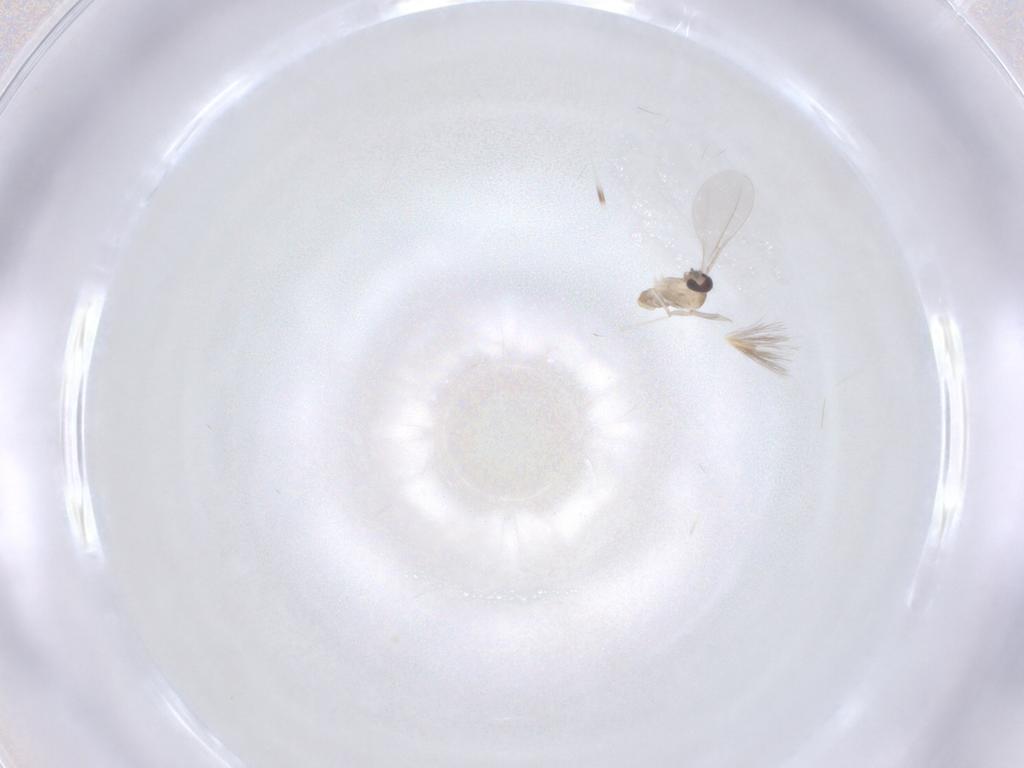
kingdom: Animalia
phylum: Arthropoda
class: Insecta
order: Diptera
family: Cecidomyiidae
